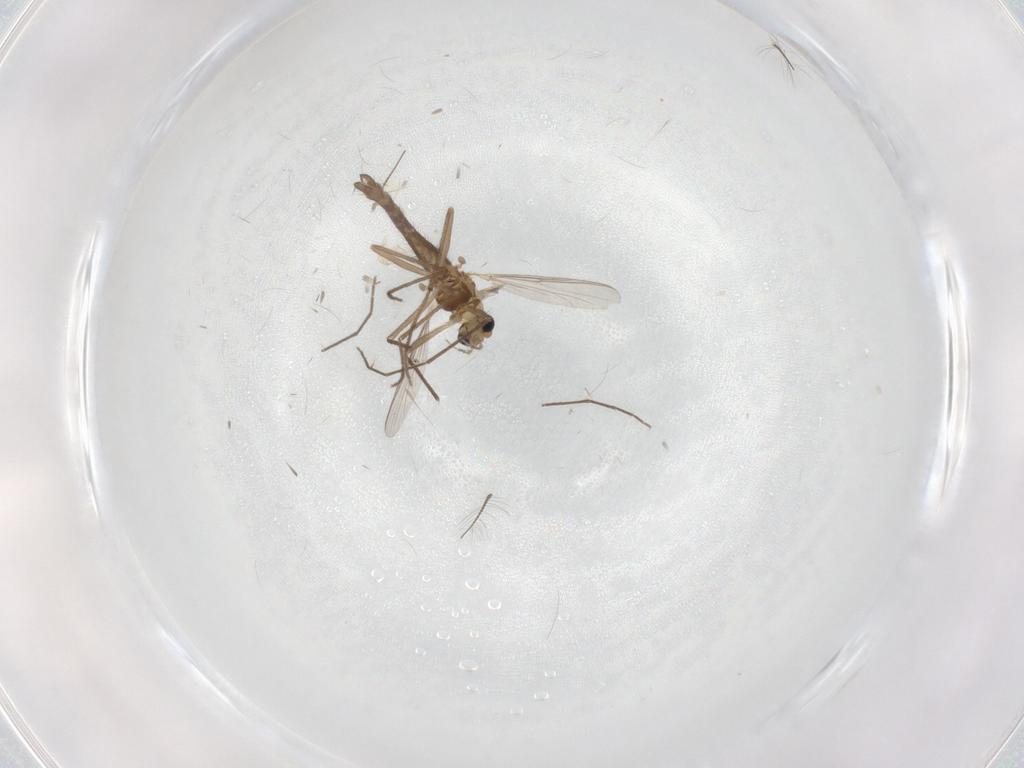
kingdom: Animalia
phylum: Arthropoda
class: Insecta
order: Diptera
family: Chironomidae
